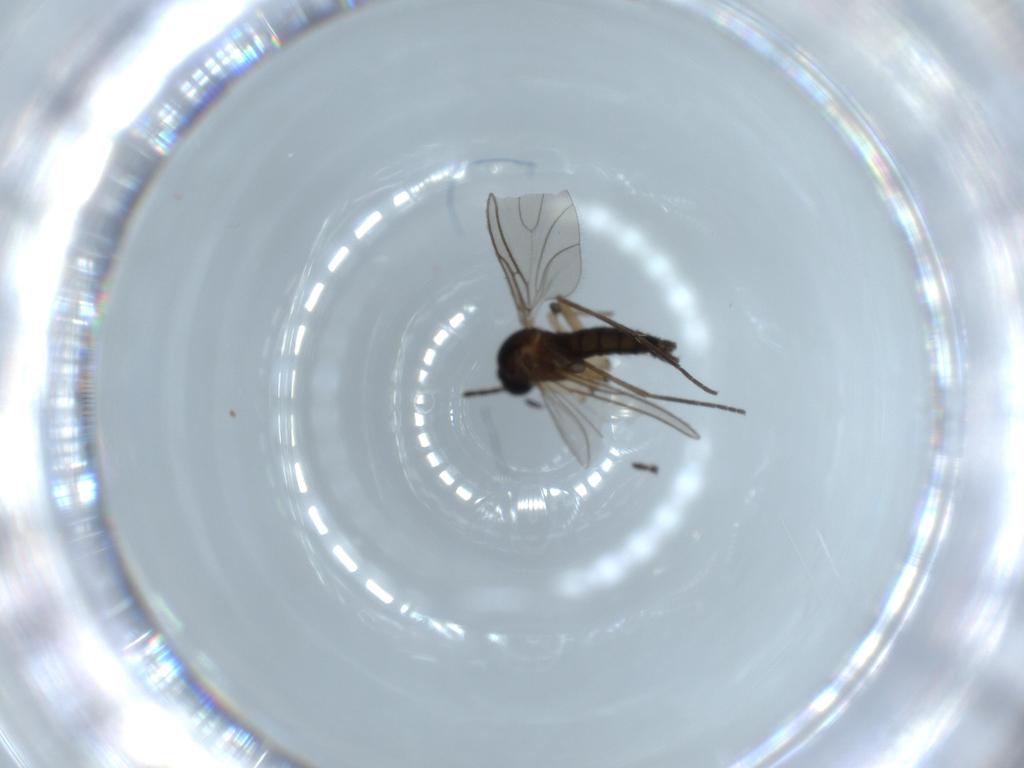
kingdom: Animalia
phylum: Arthropoda
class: Insecta
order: Diptera
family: Sciaridae
